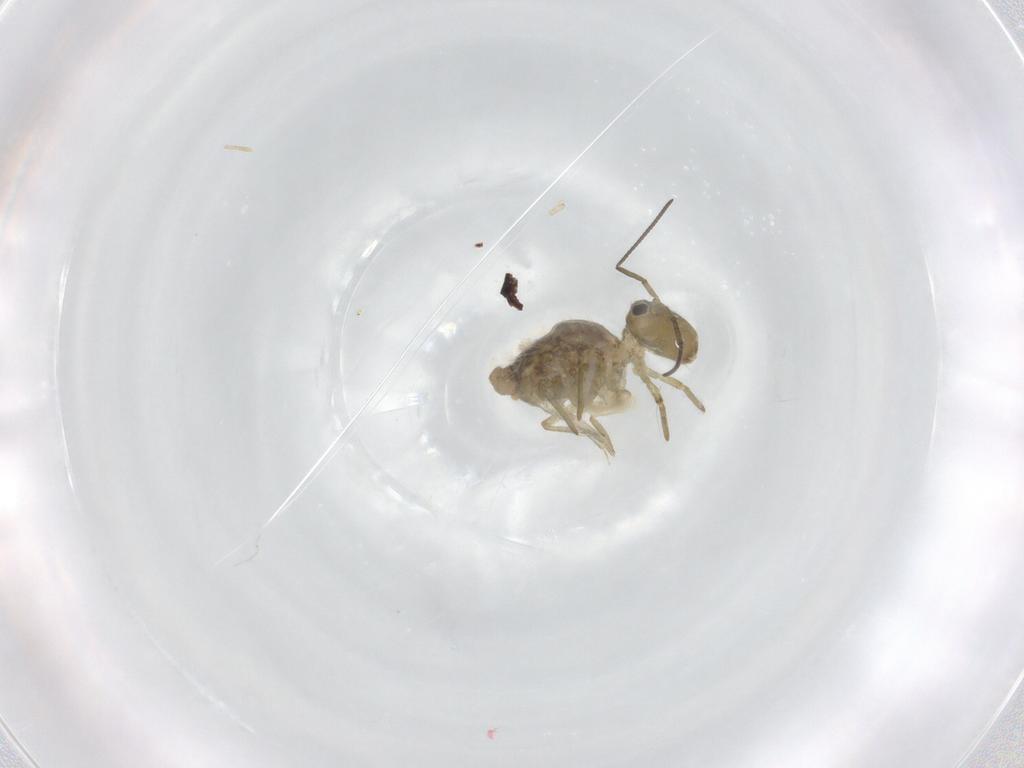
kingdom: Animalia
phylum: Arthropoda
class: Collembola
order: Symphypleona
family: Sminthuridae
